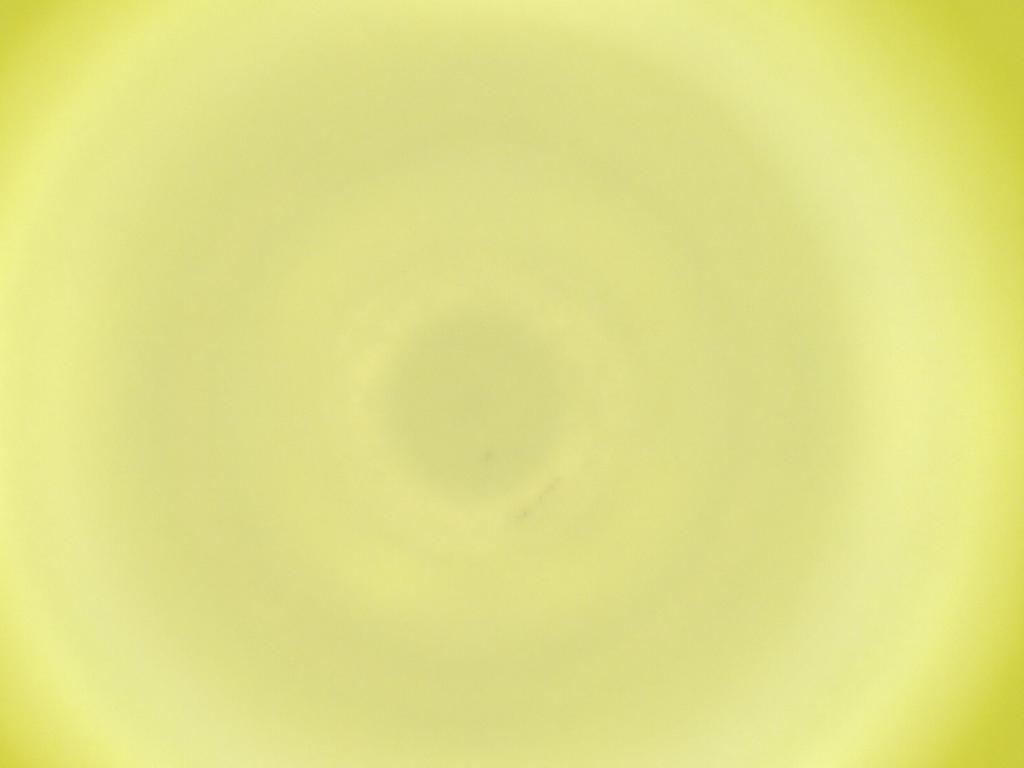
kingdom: Animalia
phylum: Arthropoda
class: Insecta
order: Diptera
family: Cecidomyiidae
